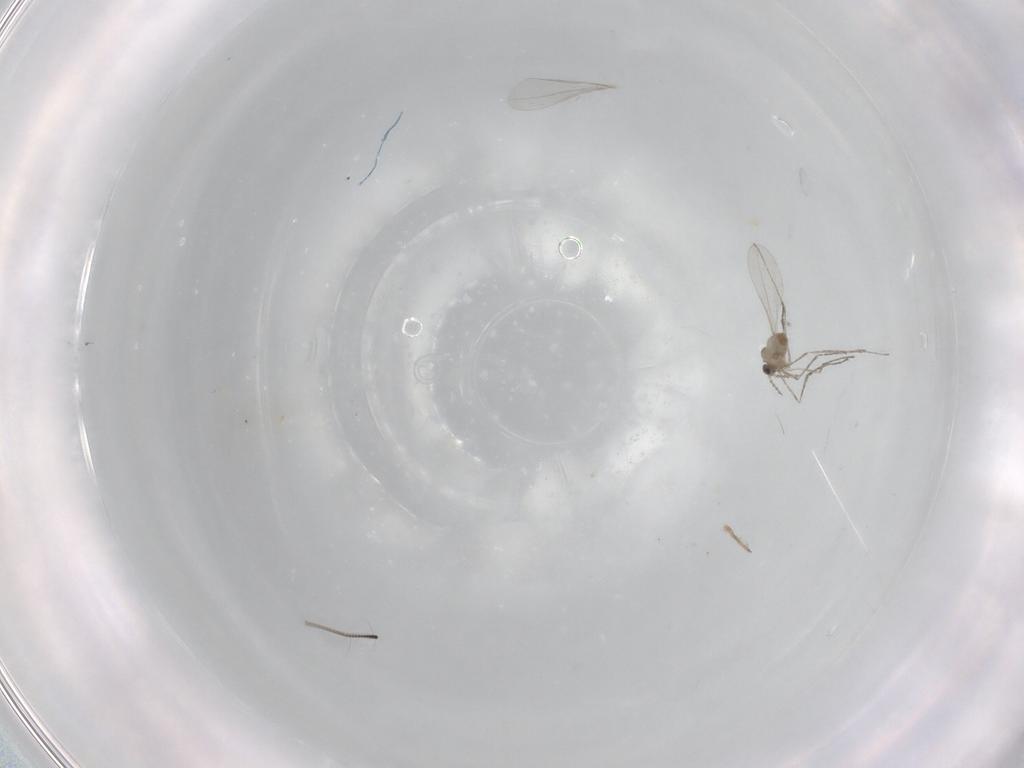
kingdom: Animalia
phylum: Arthropoda
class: Insecta
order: Diptera
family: Cecidomyiidae
